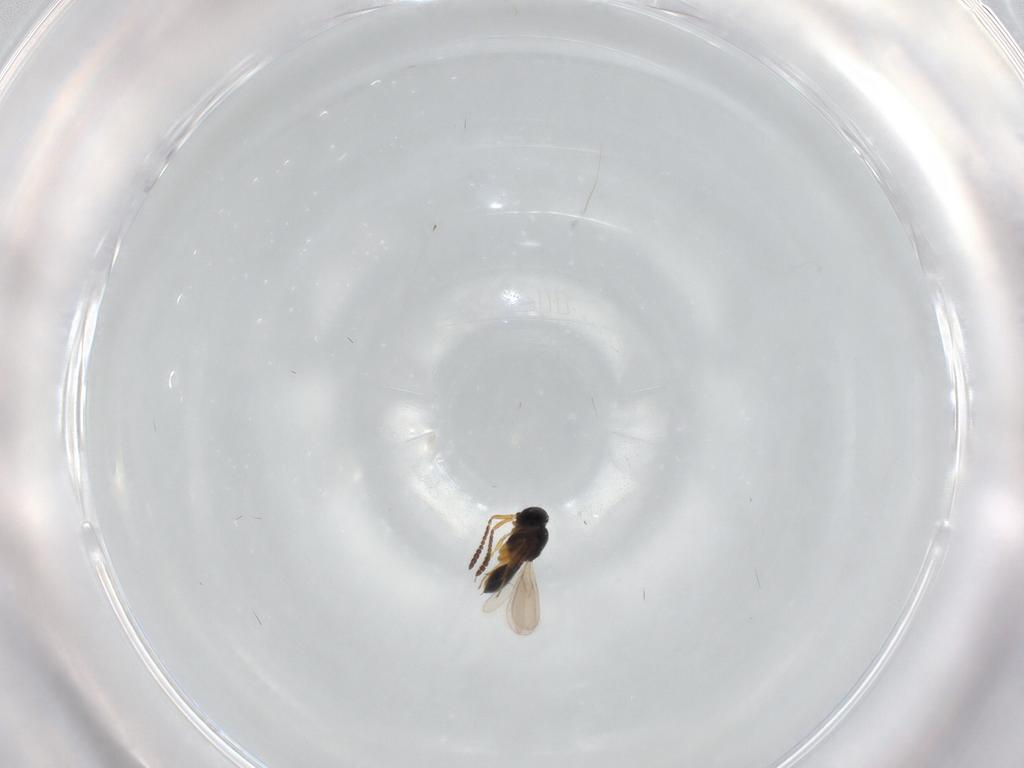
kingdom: Animalia
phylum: Arthropoda
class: Insecta
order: Hymenoptera
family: Scelionidae
